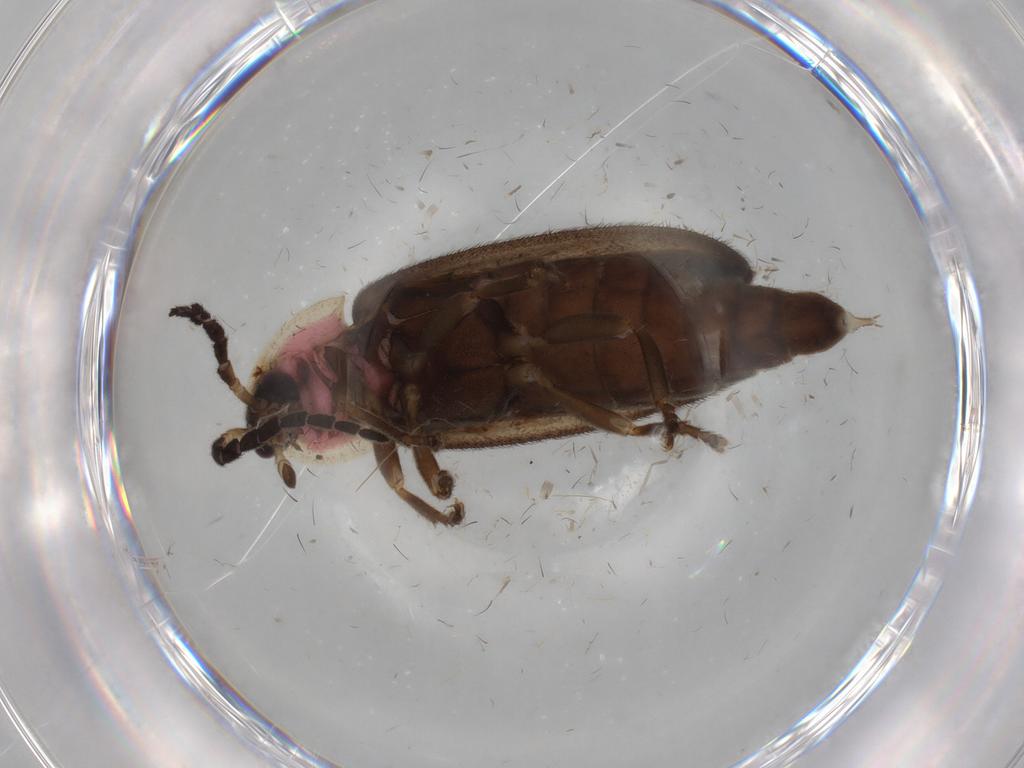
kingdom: Animalia
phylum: Arthropoda
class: Insecta
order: Coleoptera
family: Lampyridae
